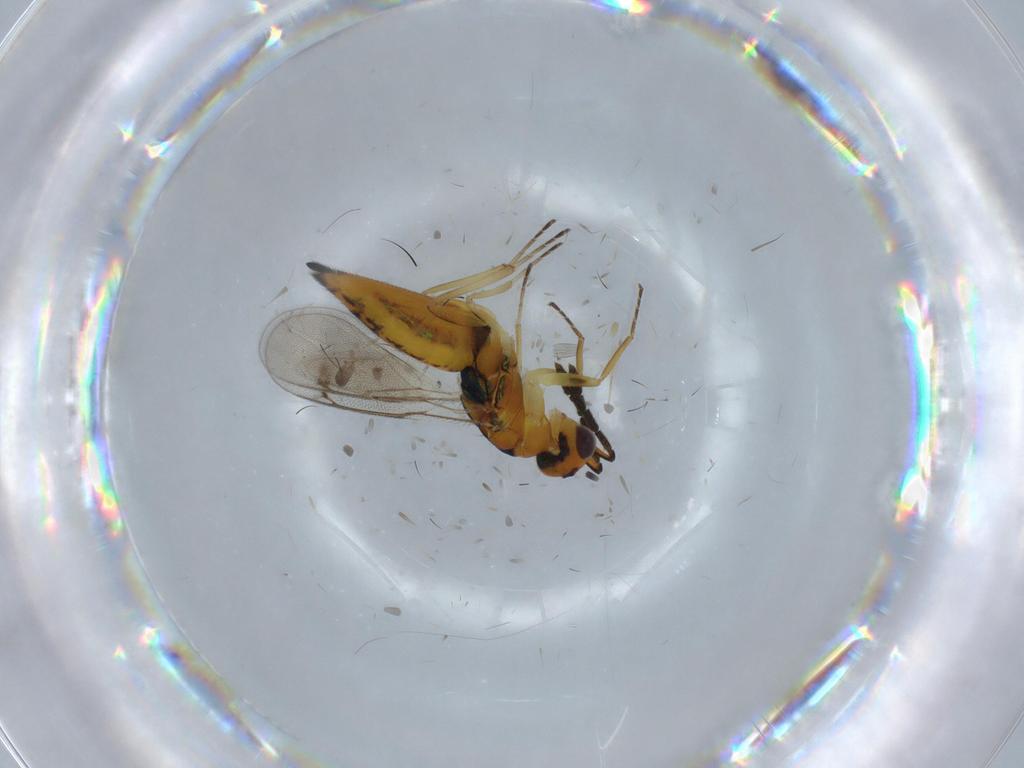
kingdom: Animalia
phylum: Arthropoda
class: Insecta
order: Hymenoptera
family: Eulophidae
